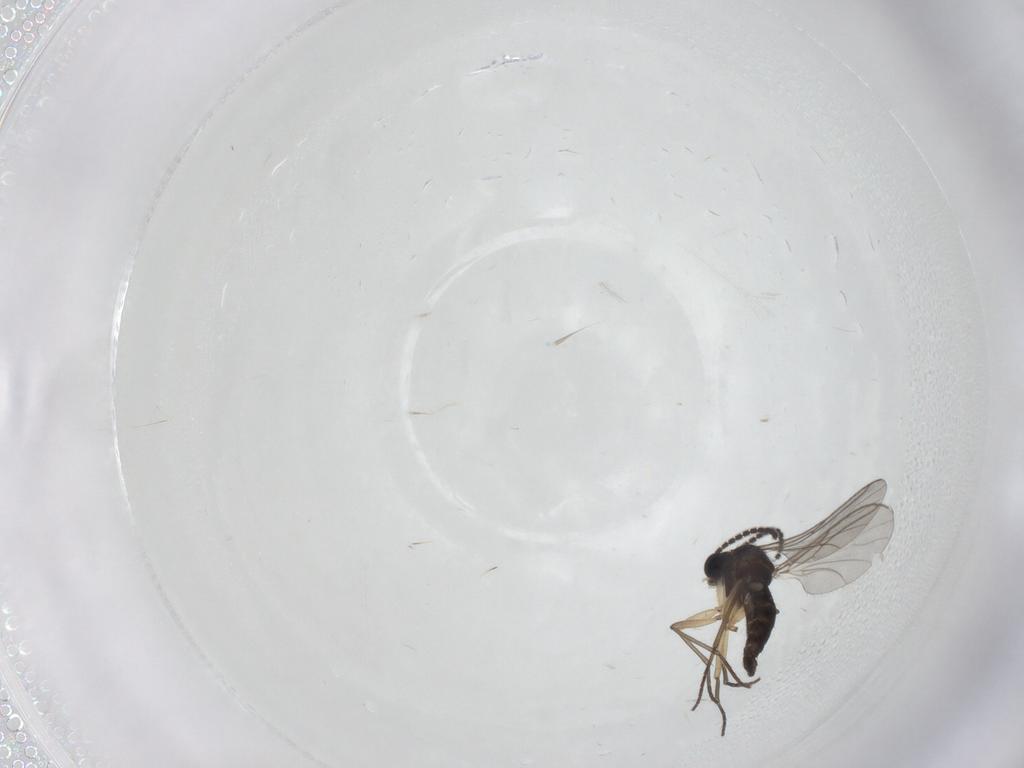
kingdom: Animalia
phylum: Arthropoda
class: Insecta
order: Diptera
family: Sciaridae
